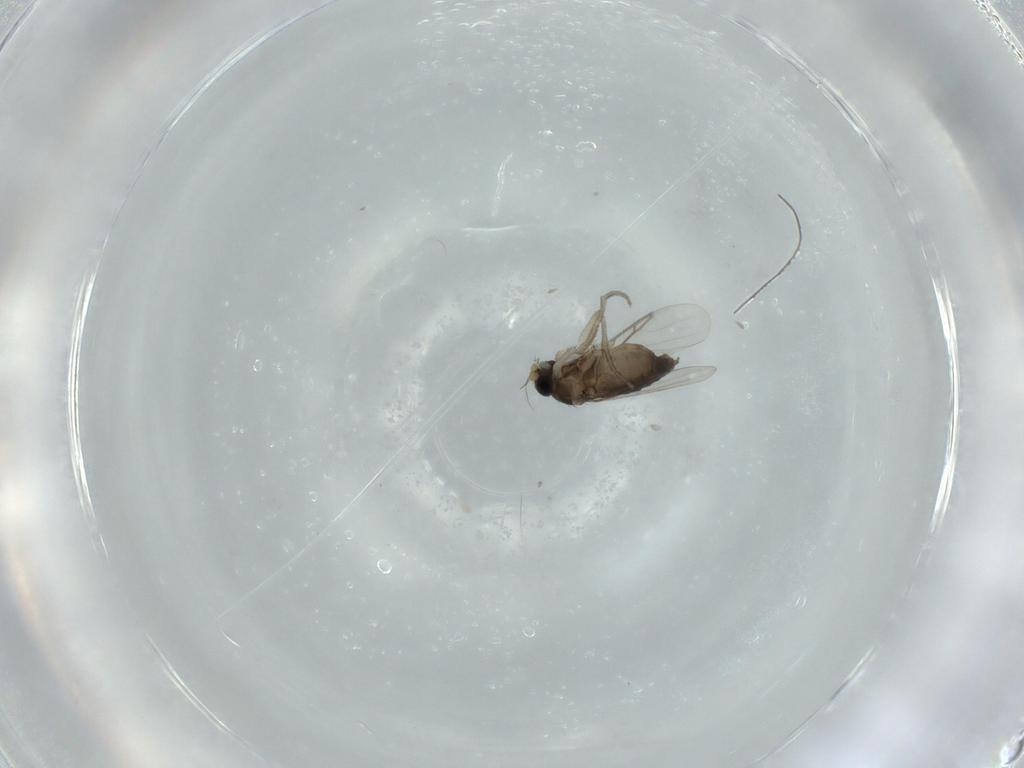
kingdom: Animalia
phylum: Arthropoda
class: Insecta
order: Diptera
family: Phoridae
